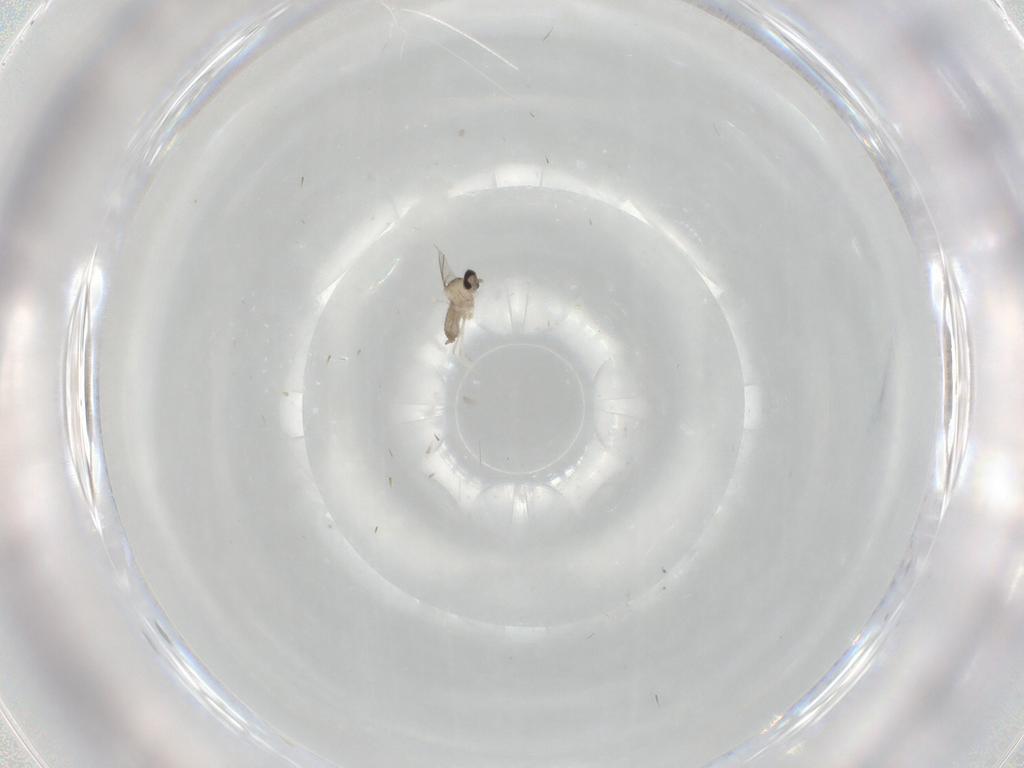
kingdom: Animalia
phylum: Arthropoda
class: Insecta
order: Diptera
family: Cecidomyiidae
